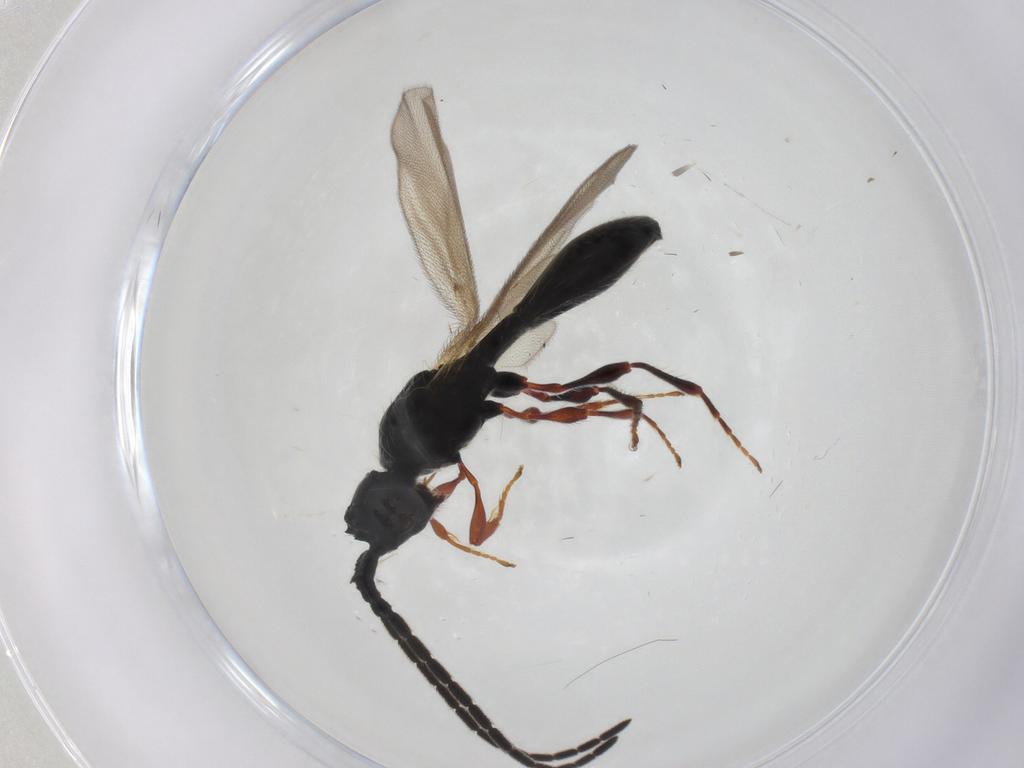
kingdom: Animalia
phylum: Arthropoda
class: Insecta
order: Hymenoptera
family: Diapriidae
